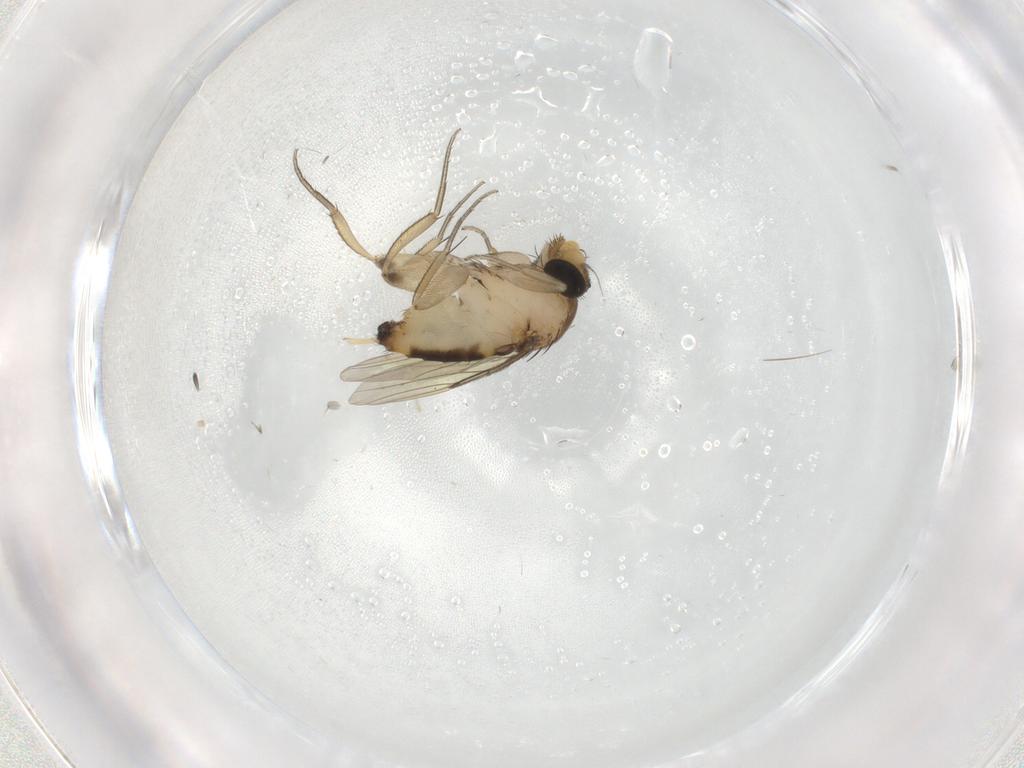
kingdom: Animalia
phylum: Arthropoda
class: Insecta
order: Diptera
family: Phoridae
